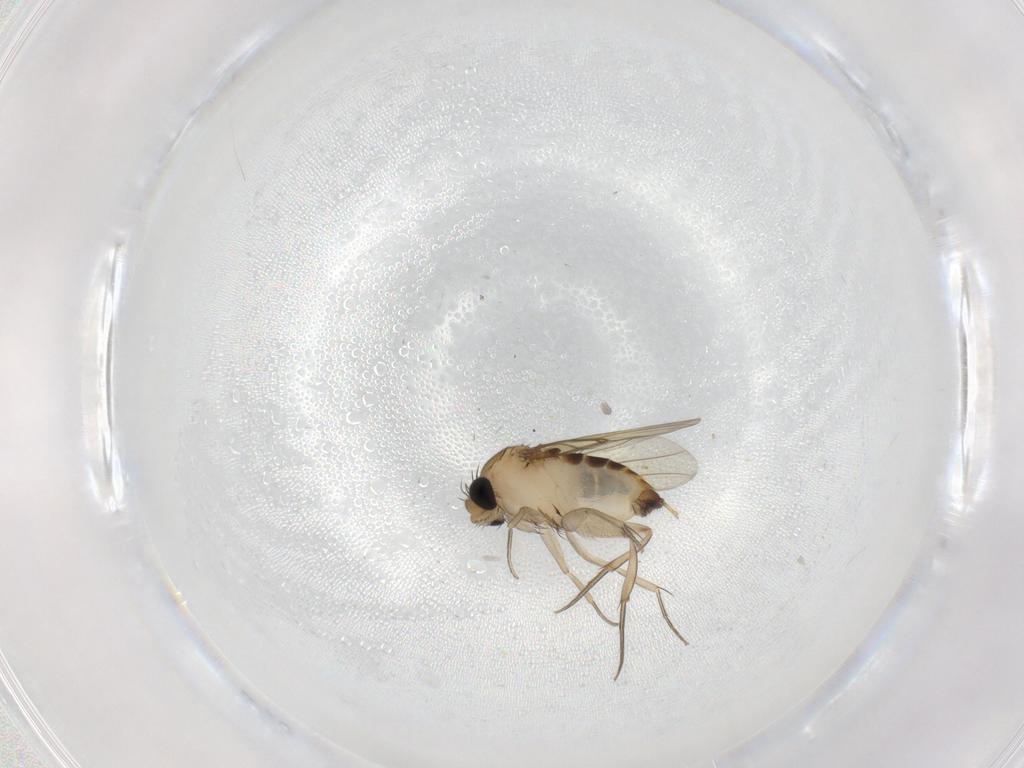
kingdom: Animalia
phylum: Arthropoda
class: Insecta
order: Diptera
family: Phoridae
